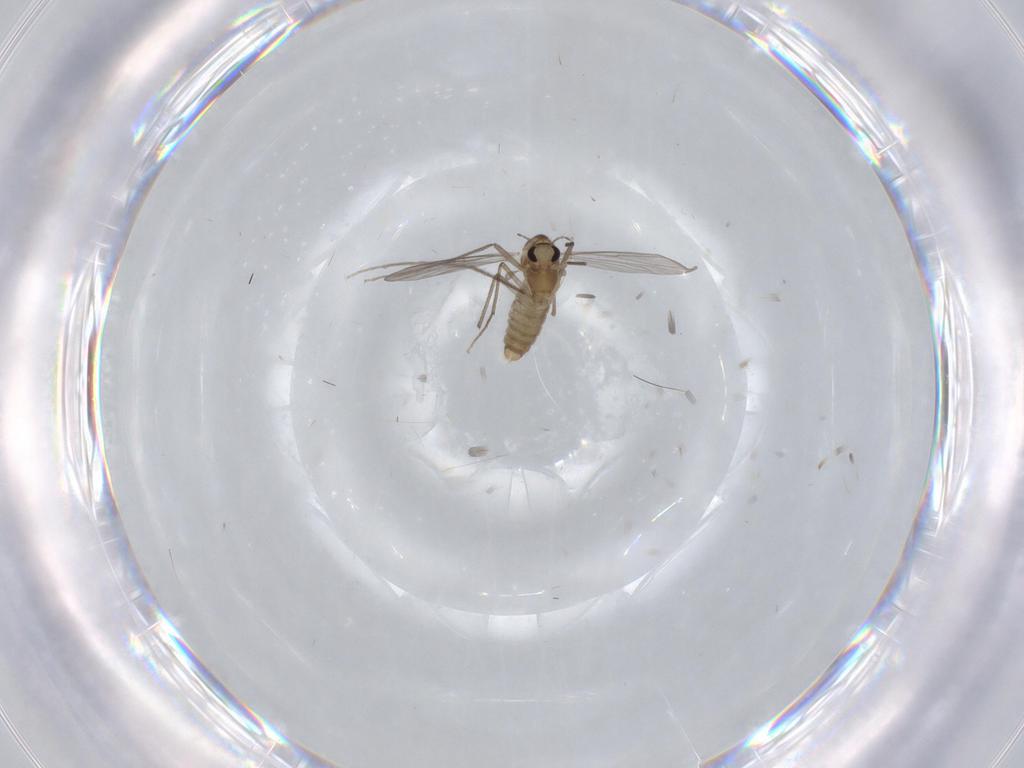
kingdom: Animalia
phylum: Arthropoda
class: Insecta
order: Diptera
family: Chironomidae
